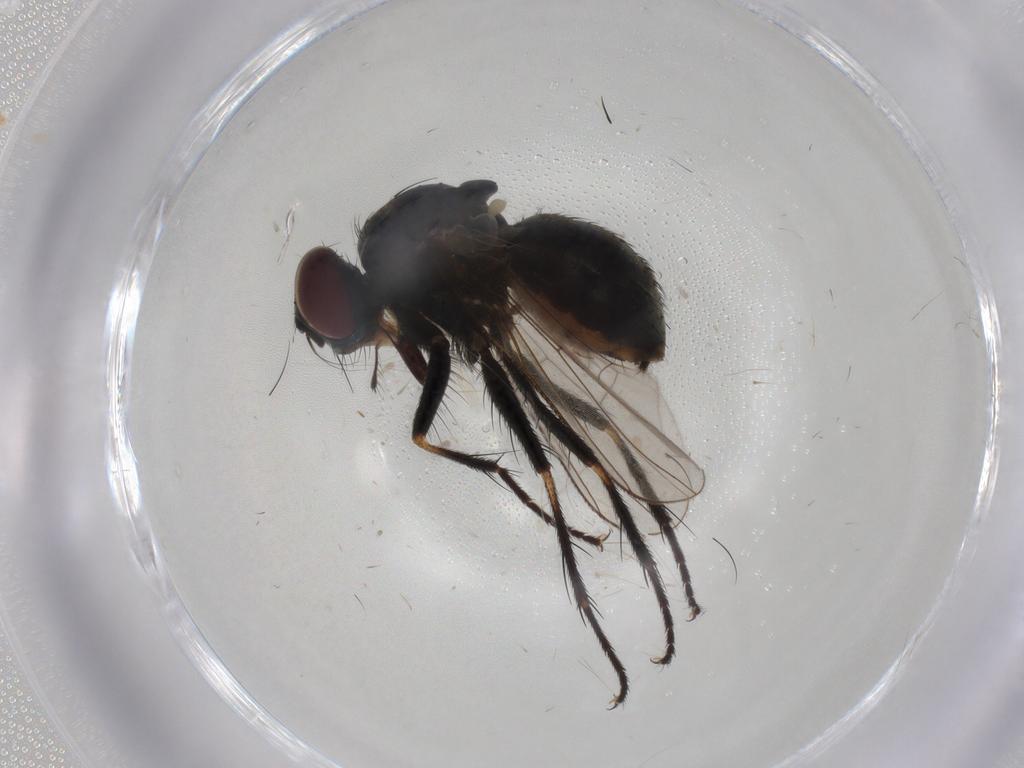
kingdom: Animalia
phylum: Arthropoda
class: Insecta
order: Diptera
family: Muscidae
